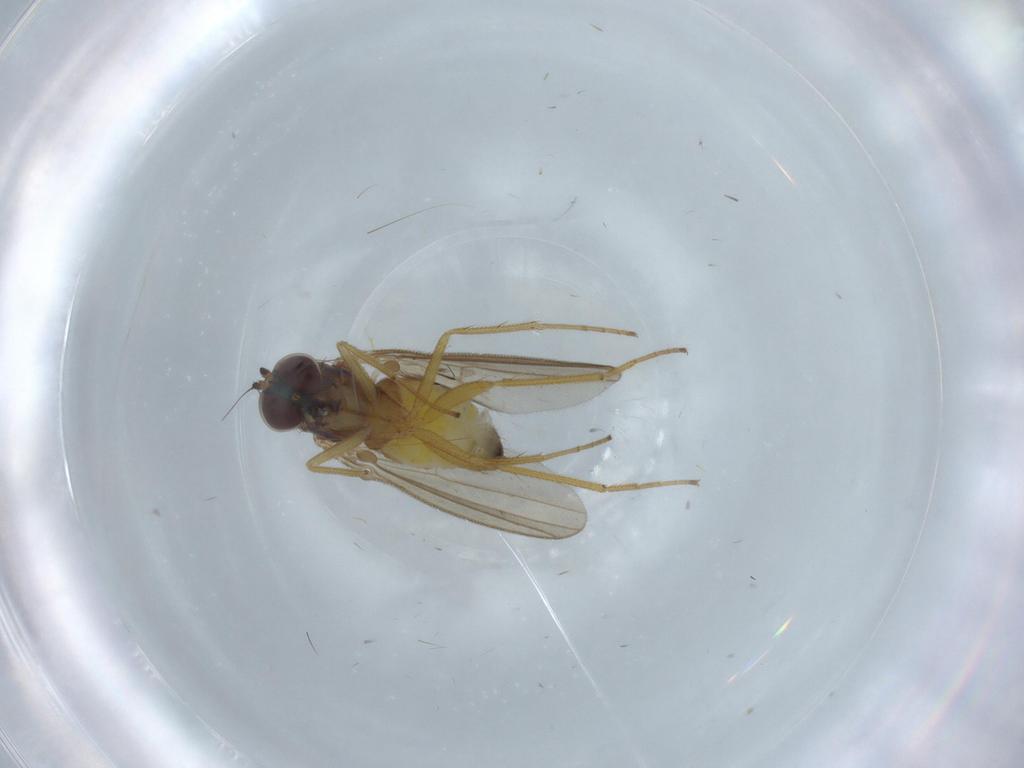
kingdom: Animalia
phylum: Arthropoda
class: Insecta
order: Diptera
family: Dolichopodidae
